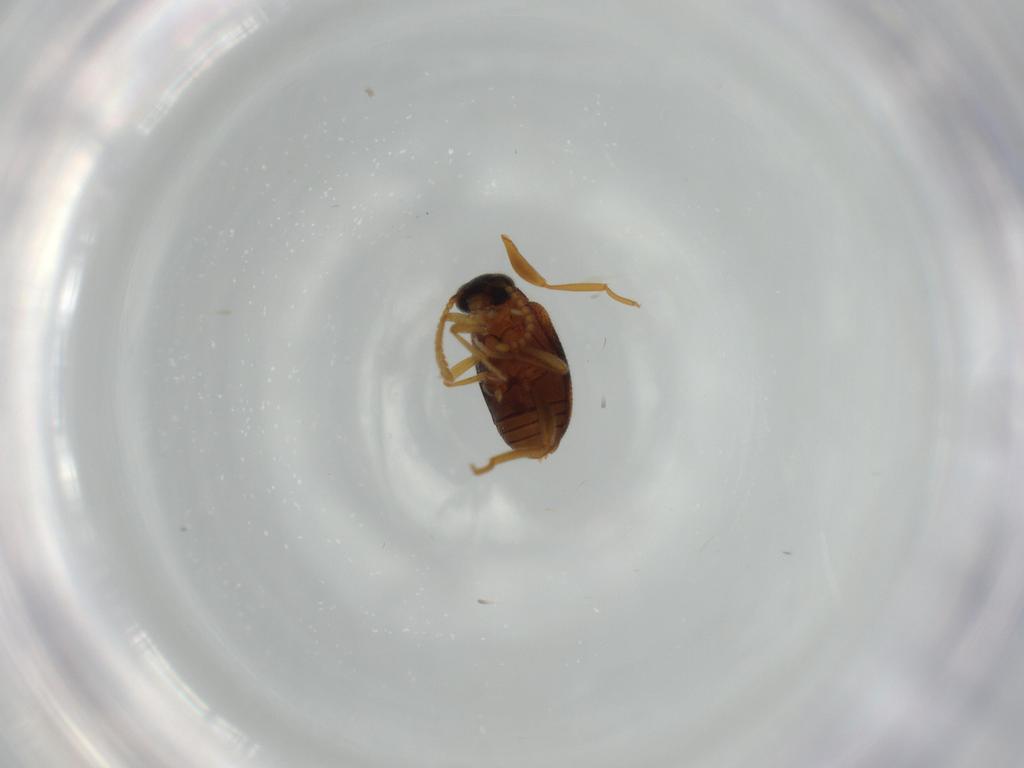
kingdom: Animalia
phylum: Arthropoda
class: Insecta
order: Coleoptera
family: Aderidae
